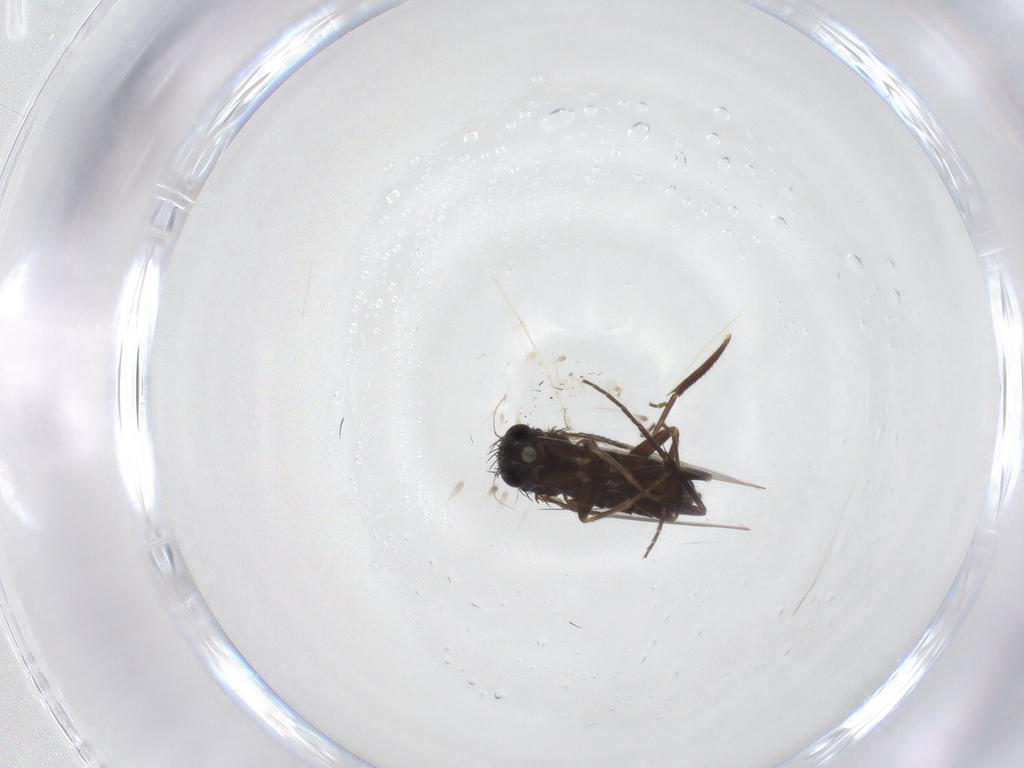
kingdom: Animalia
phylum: Arthropoda
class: Insecta
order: Diptera
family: Phoridae
